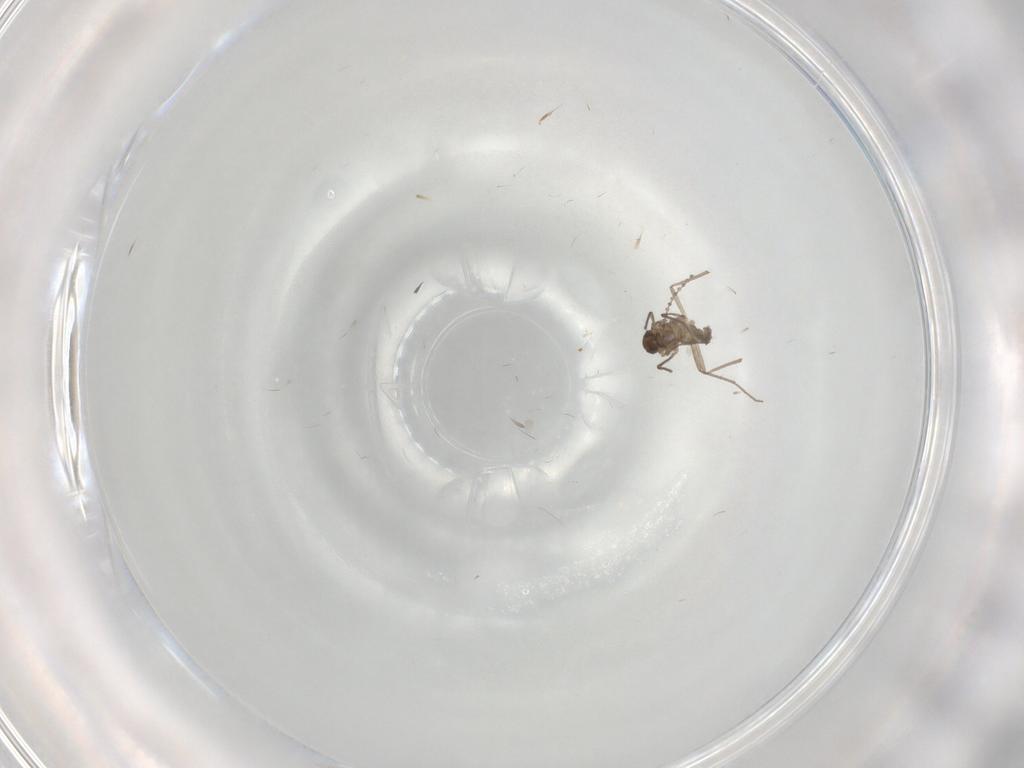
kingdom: Animalia
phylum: Arthropoda
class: Insecta
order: Diptera
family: Chironomidae
